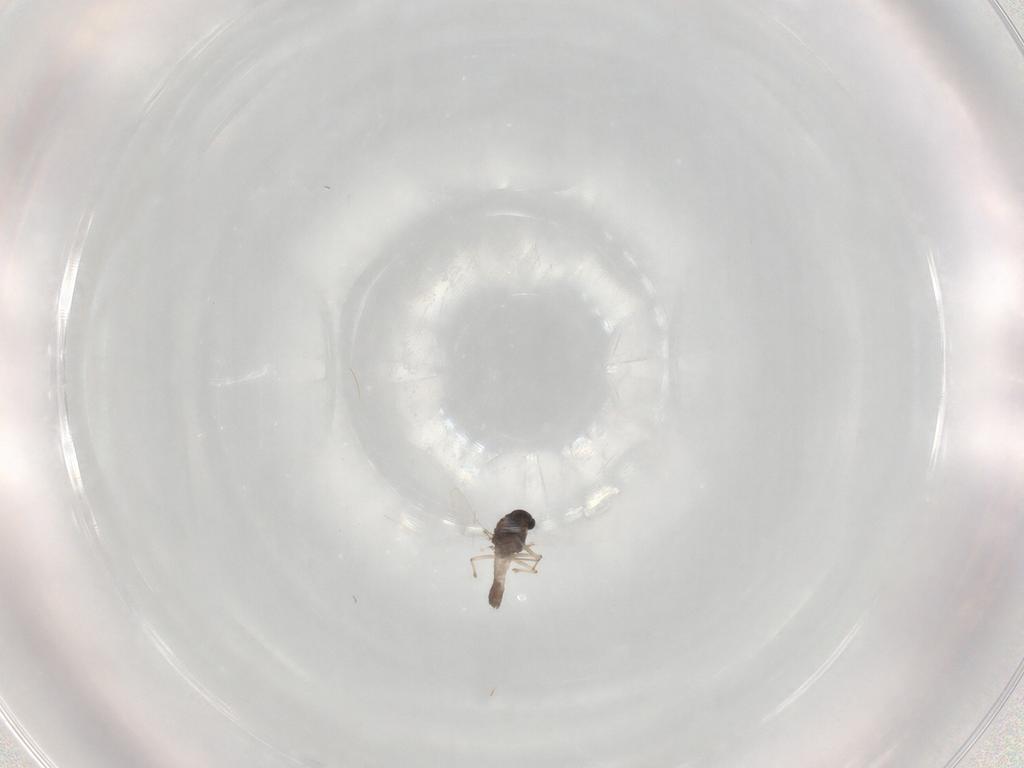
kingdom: Animalia
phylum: Arthropoda
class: Insecta
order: Diptera
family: Chironomidae
